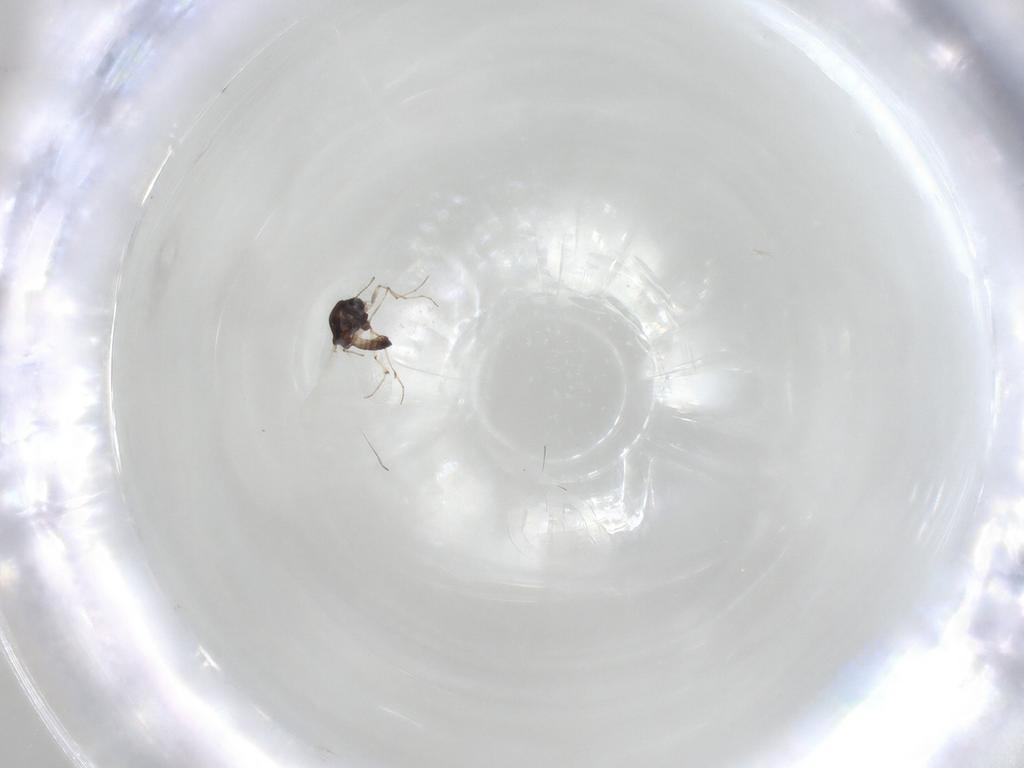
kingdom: Animalia
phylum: Arthropoda
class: Insecta
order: Diptera
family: Chironomidae
